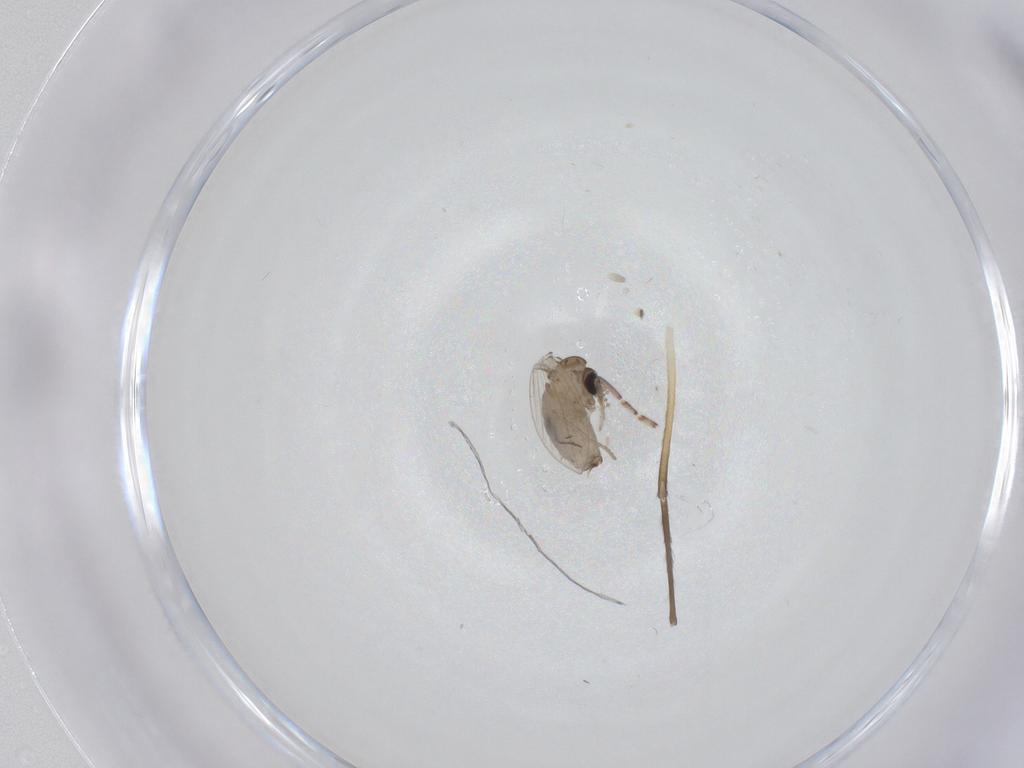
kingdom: Animalia
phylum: Arthropoda
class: Insecta
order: Diptera
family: Psychodidae
